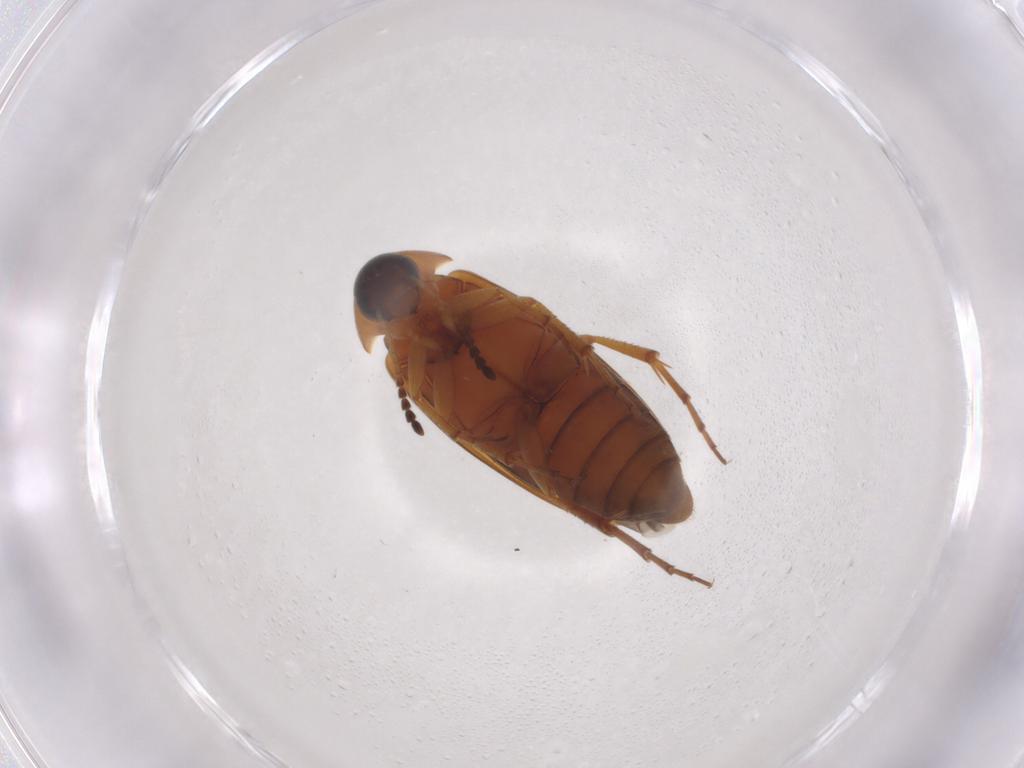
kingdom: Animalia
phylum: Arthropoda
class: Insecta
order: Coleoptera
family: Scraptiidae
